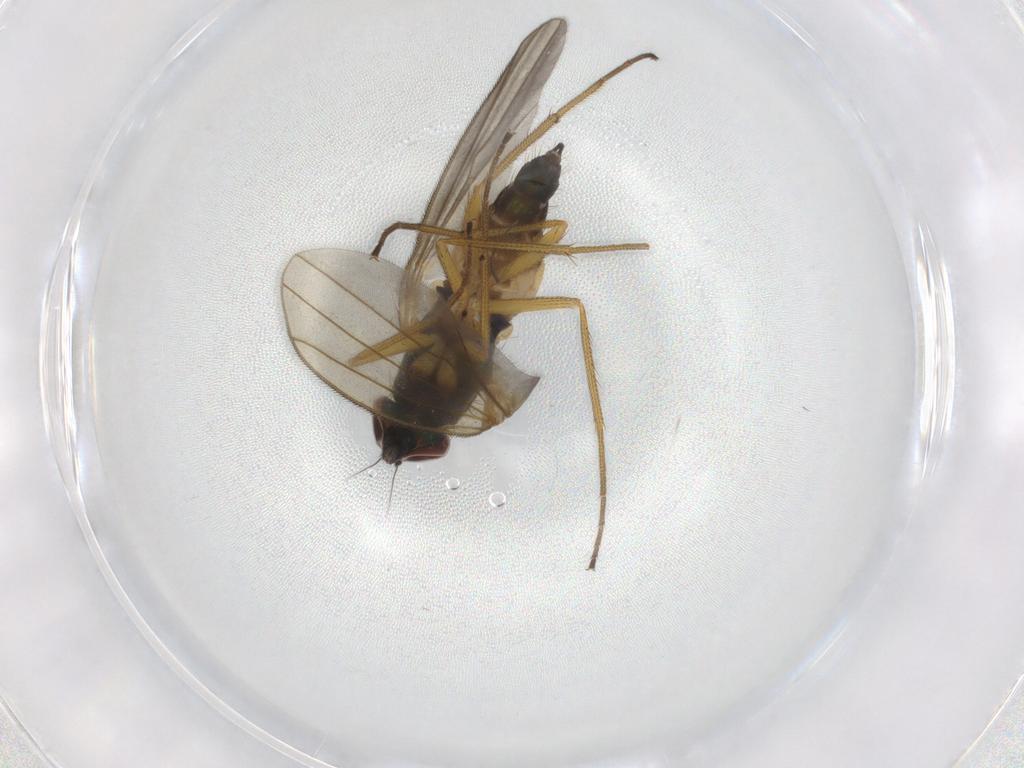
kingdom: Animalia
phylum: Arthropoda
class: Insecta
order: Diptera
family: Dolichopodidae
